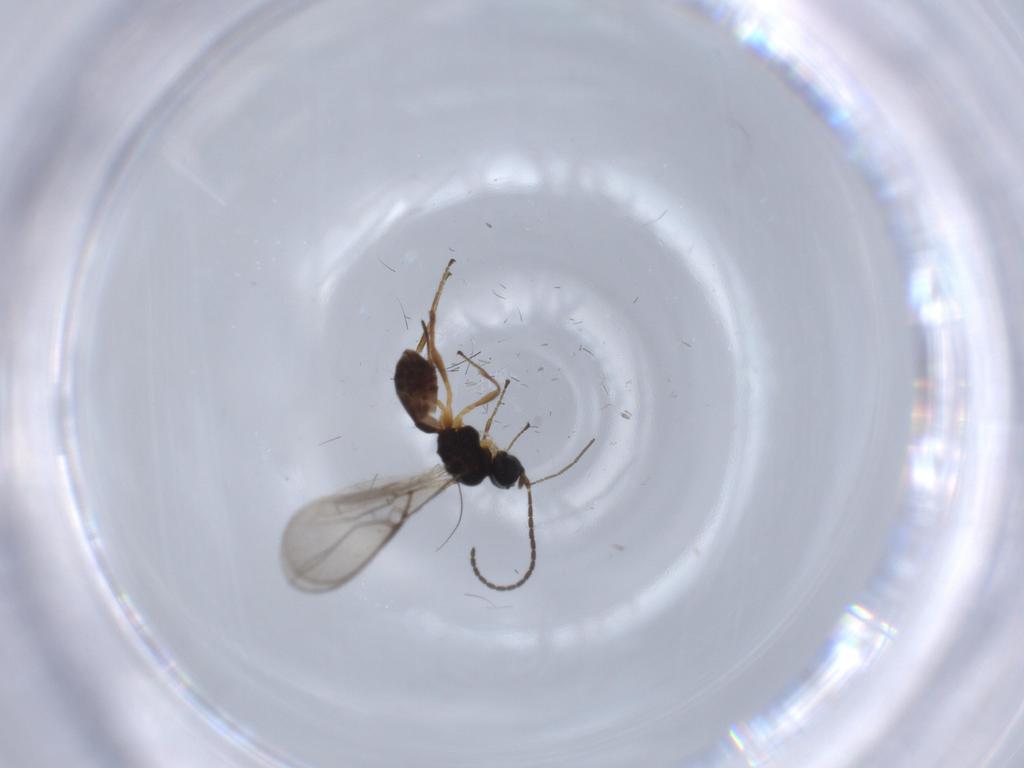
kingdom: Animalia
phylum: Arthropoda
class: Insecta
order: Hymenoptera
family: Braconidae
